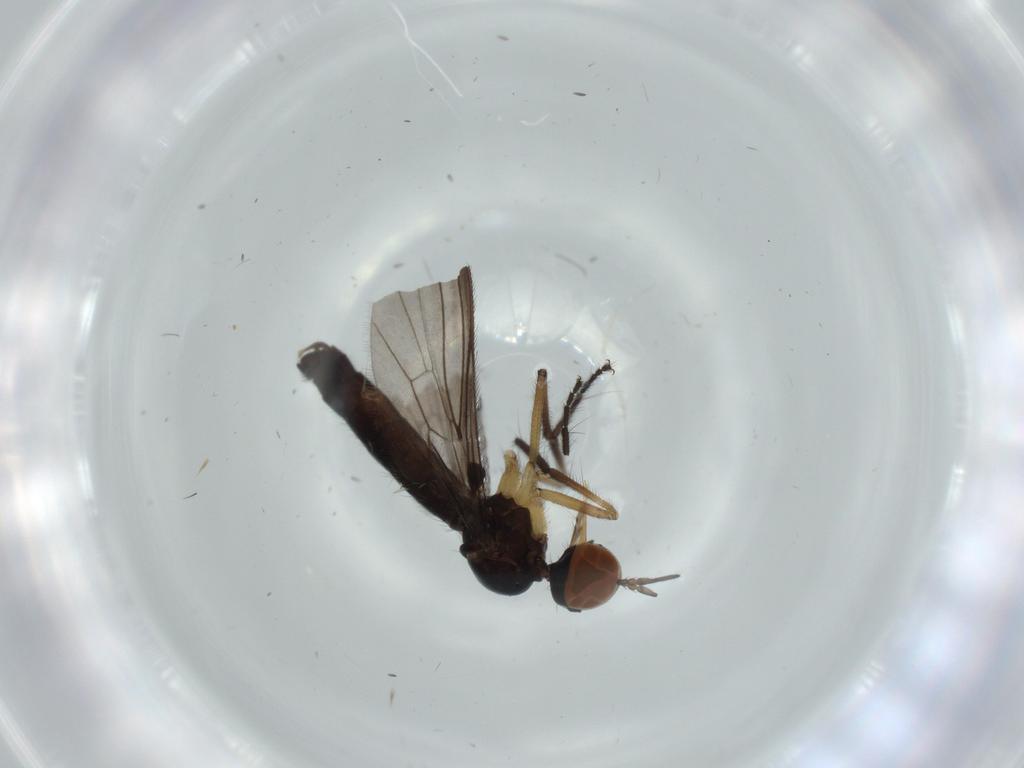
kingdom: Animalia
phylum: Arthropoda
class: Insecta
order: Diptera
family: Empididae
